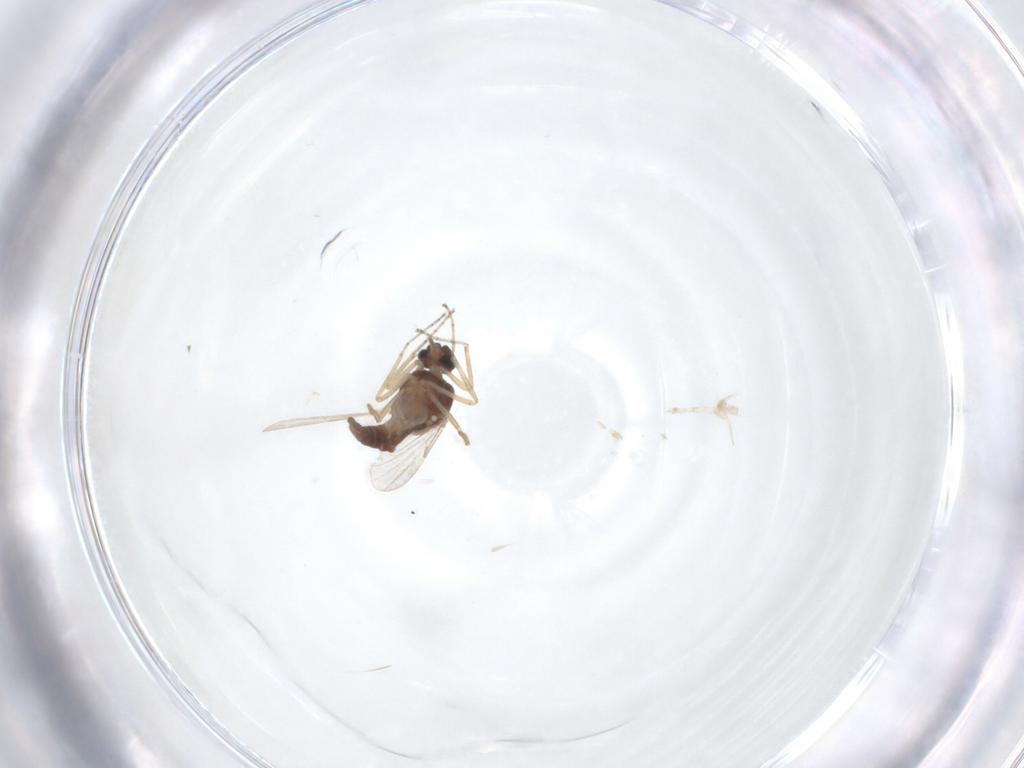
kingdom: Animalia
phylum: Arthropoda
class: Insecta
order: Diptera
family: Ceratopogonidae
